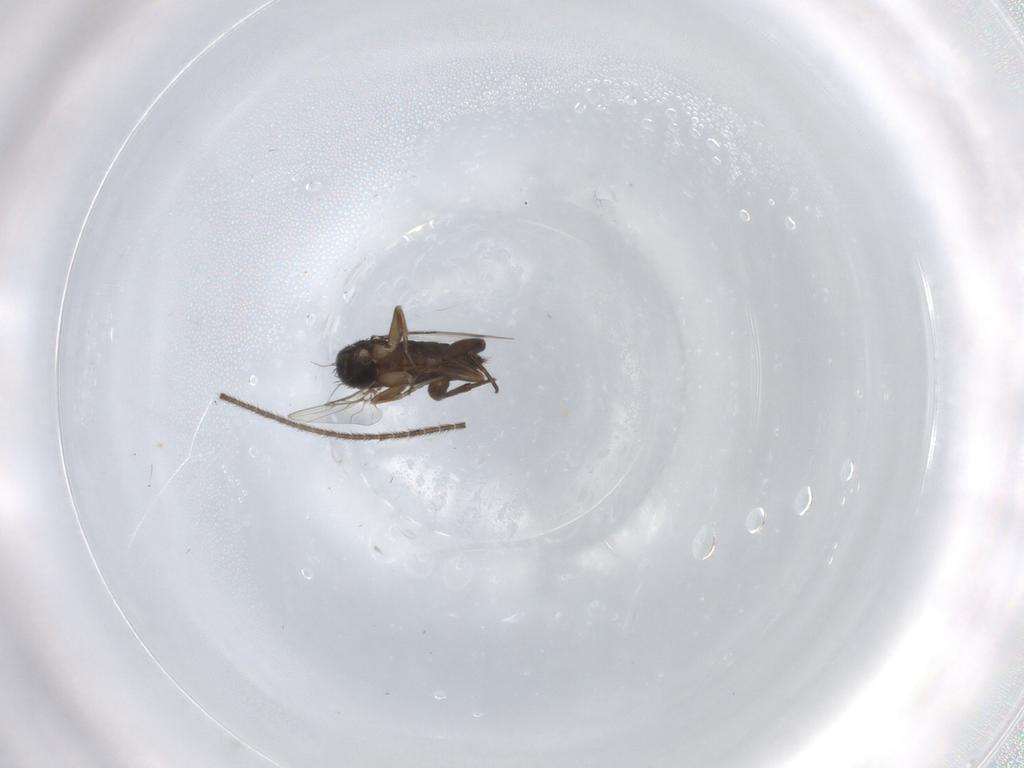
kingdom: Animalia
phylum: Arthropoda
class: Insecta
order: Diptera
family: Phoridae
